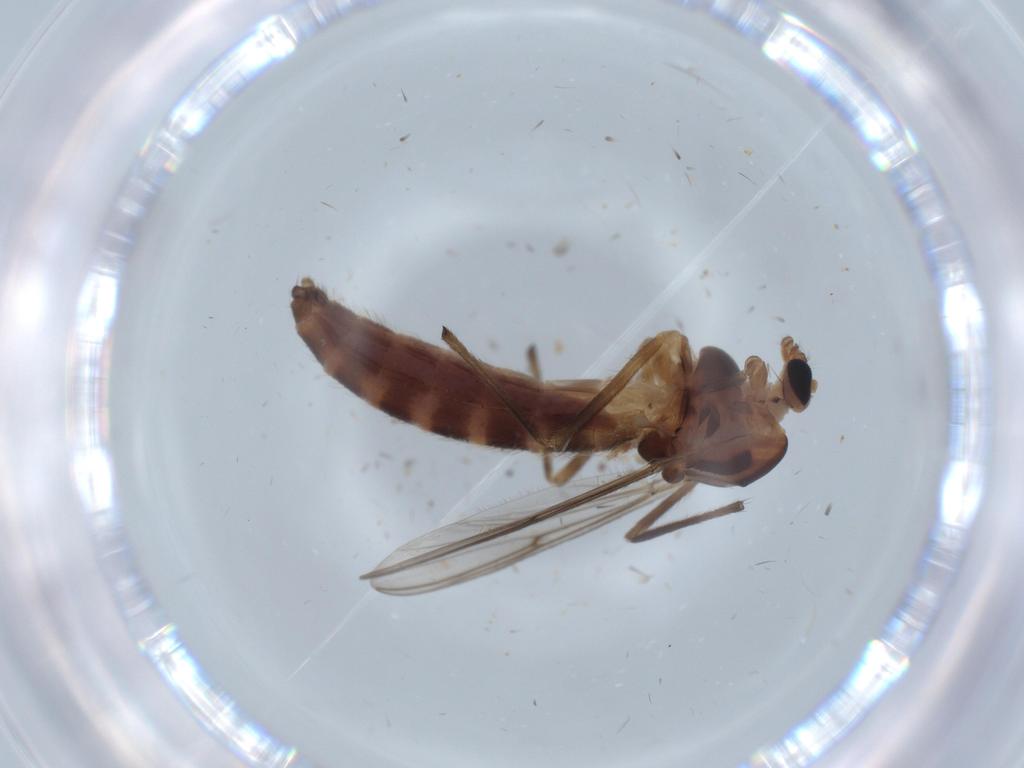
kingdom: Animalia
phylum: Arthropoda
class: Insecta
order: Diptera
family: Chironomidae
